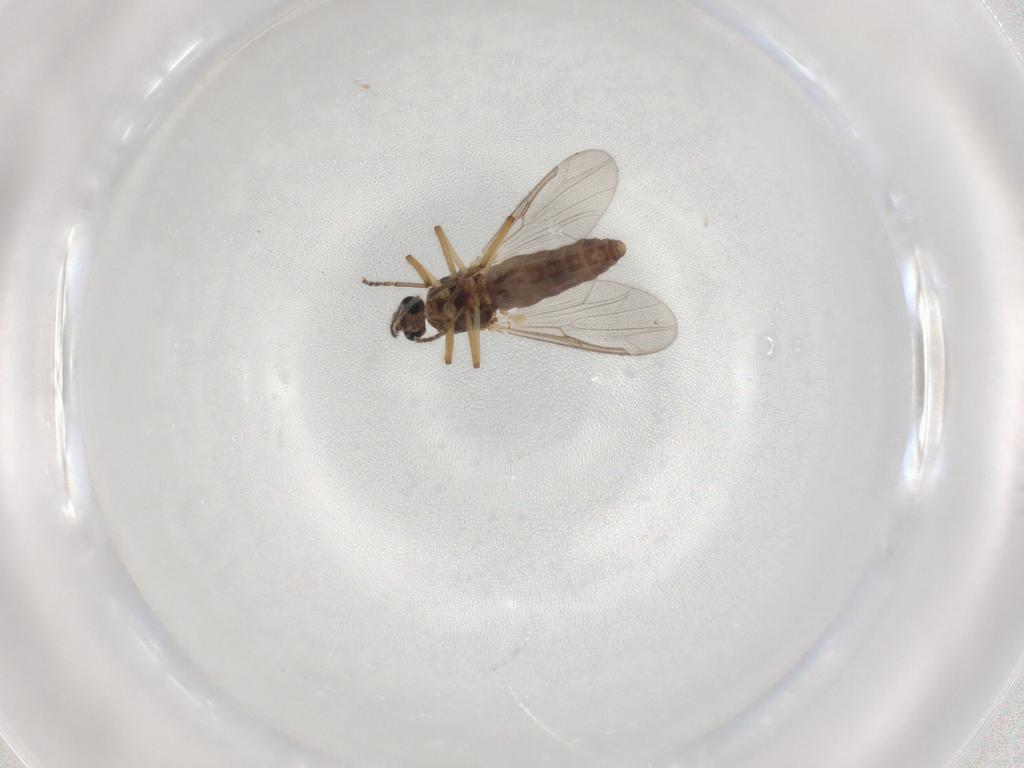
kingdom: Animalia
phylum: Arthropoda
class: Insecta
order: Diptera
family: Ceratopogonidae
